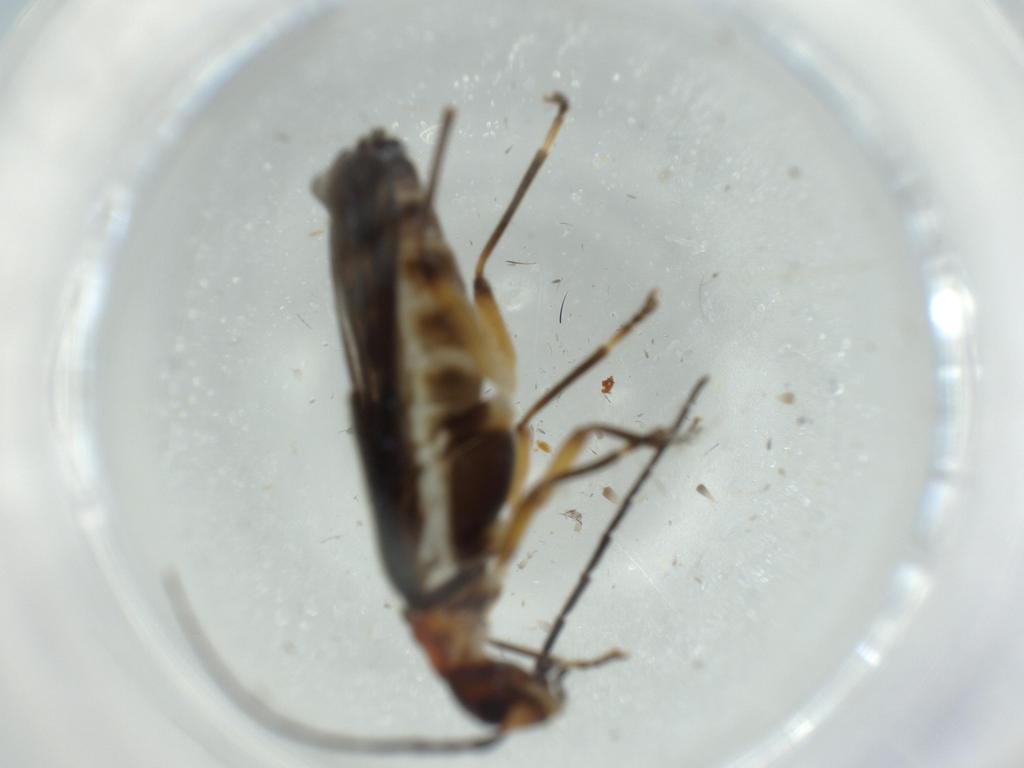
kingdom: Animalia
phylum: Arthropoda
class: Insecta
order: Coleoptera
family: Cantharidae
